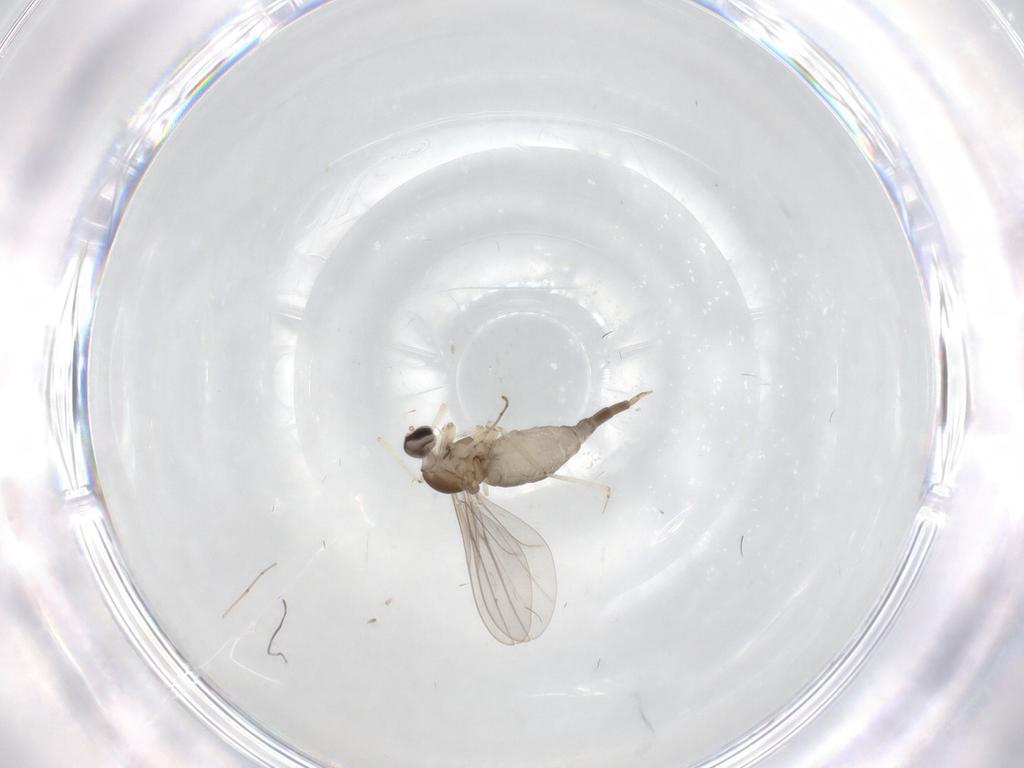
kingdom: Animalia
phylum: Arthropoda
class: Insecta
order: Diptera
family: Cecidomyiidae
